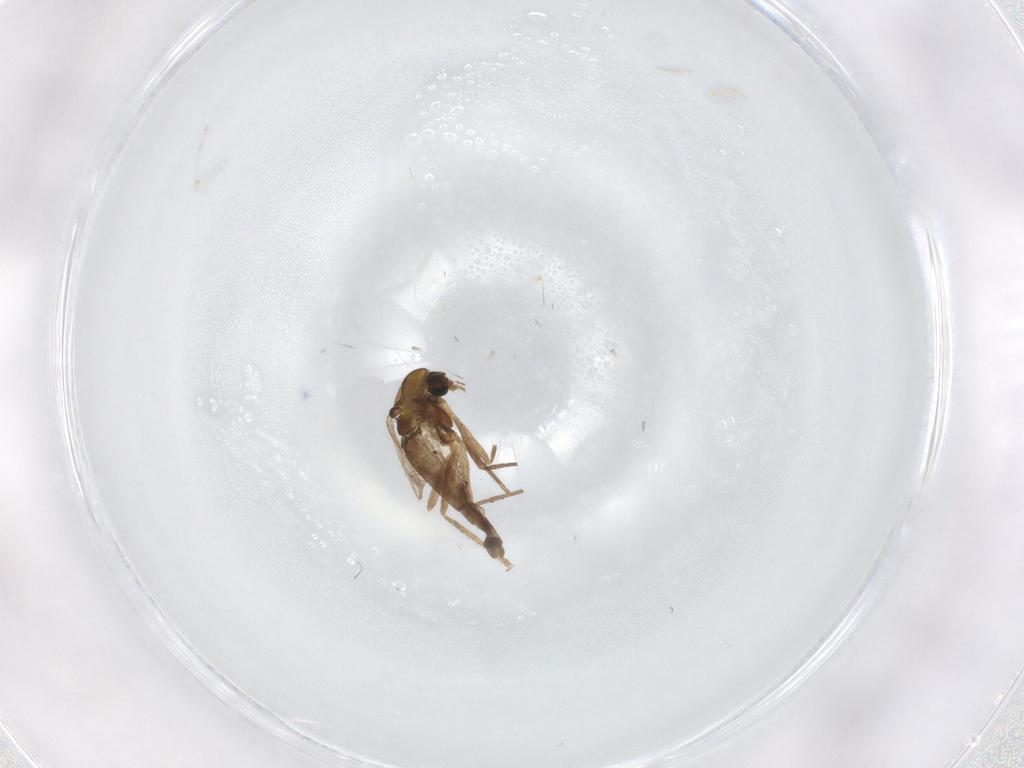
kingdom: Animalia
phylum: Arthropoda
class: Insecta
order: Diptera
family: Chironomidae
